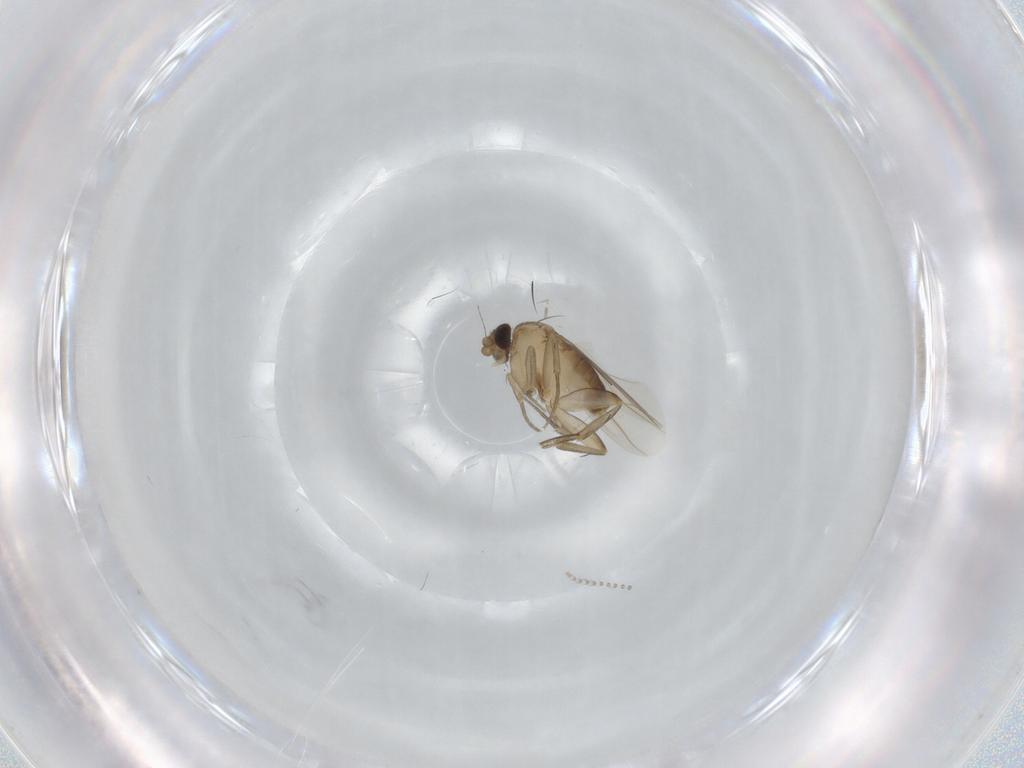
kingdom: Animalia
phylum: Arthropoda
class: Insecta
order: Diptera
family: Phoridae
